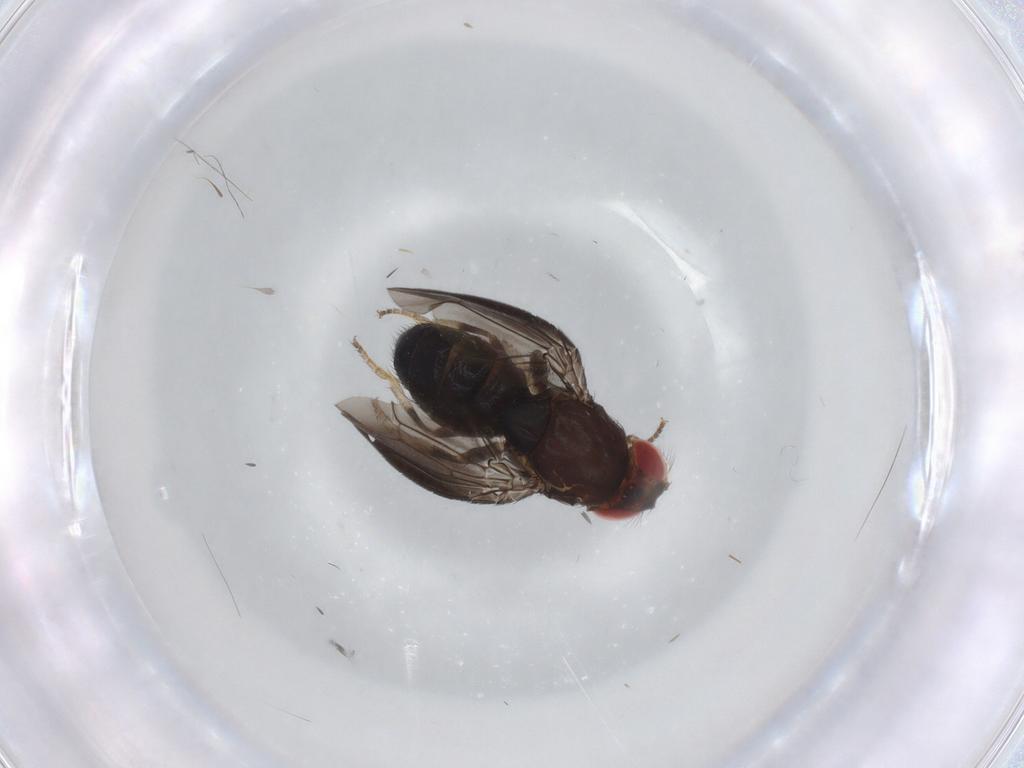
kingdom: Animalia
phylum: Arthropoda
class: Insecta
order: Diptera
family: Drosophilidae
